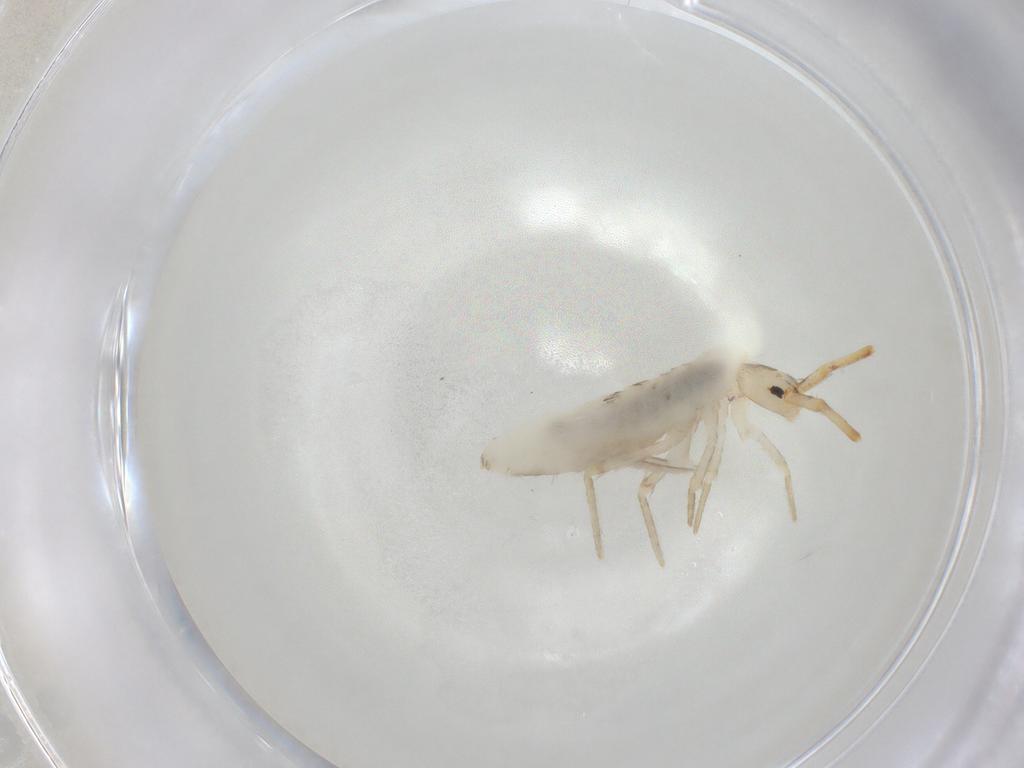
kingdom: Animalia
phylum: Arthropoda
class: Collembola
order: Poduromorpha
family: Hypogastruridae
